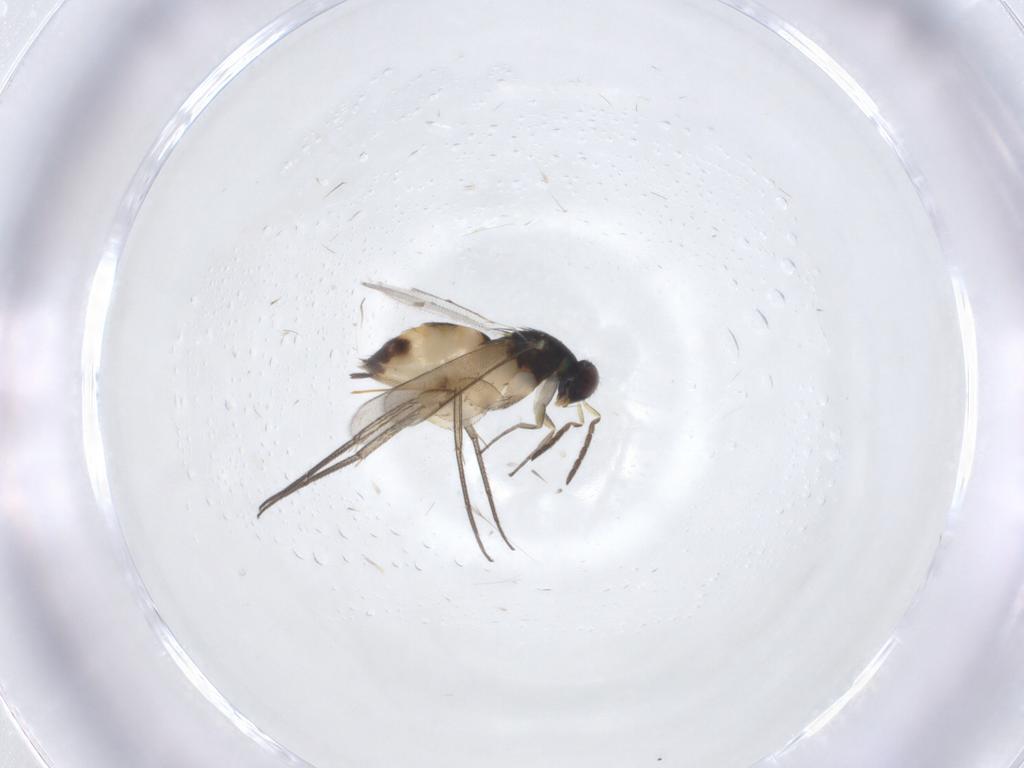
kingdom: Animalia
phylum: Arthropoda
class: Insecta
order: Hymenoptera
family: Eulophidae
